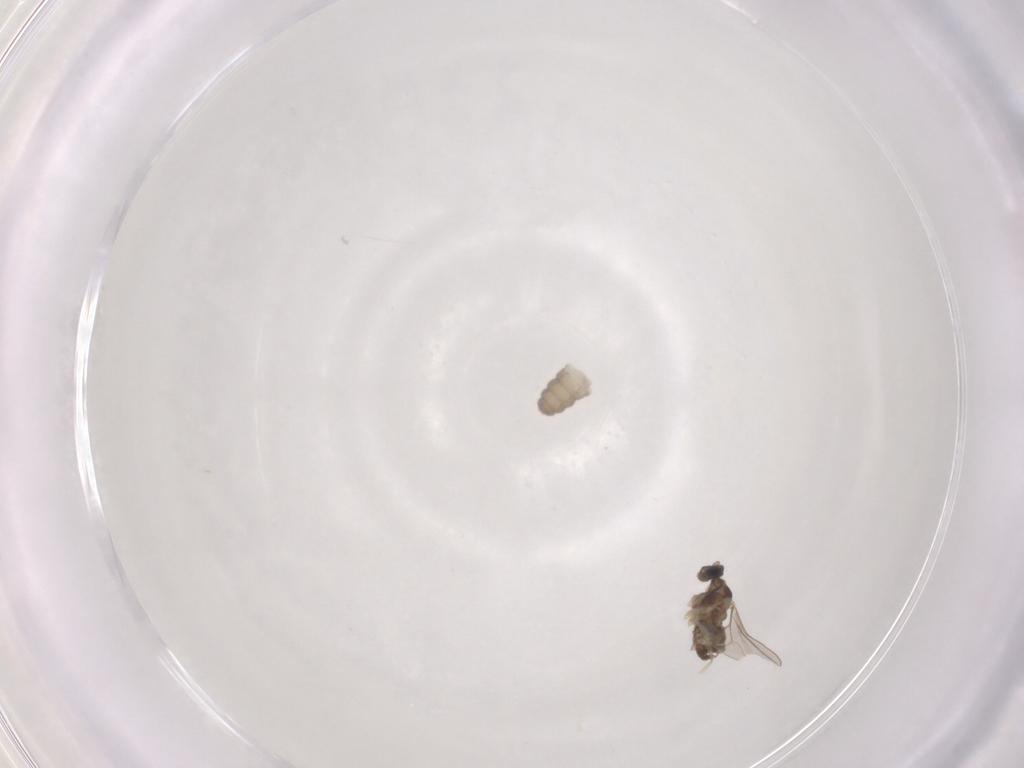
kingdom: Animalia
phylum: Arthropoda
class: Insecta
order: Diptera
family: Cecidomyiidae
